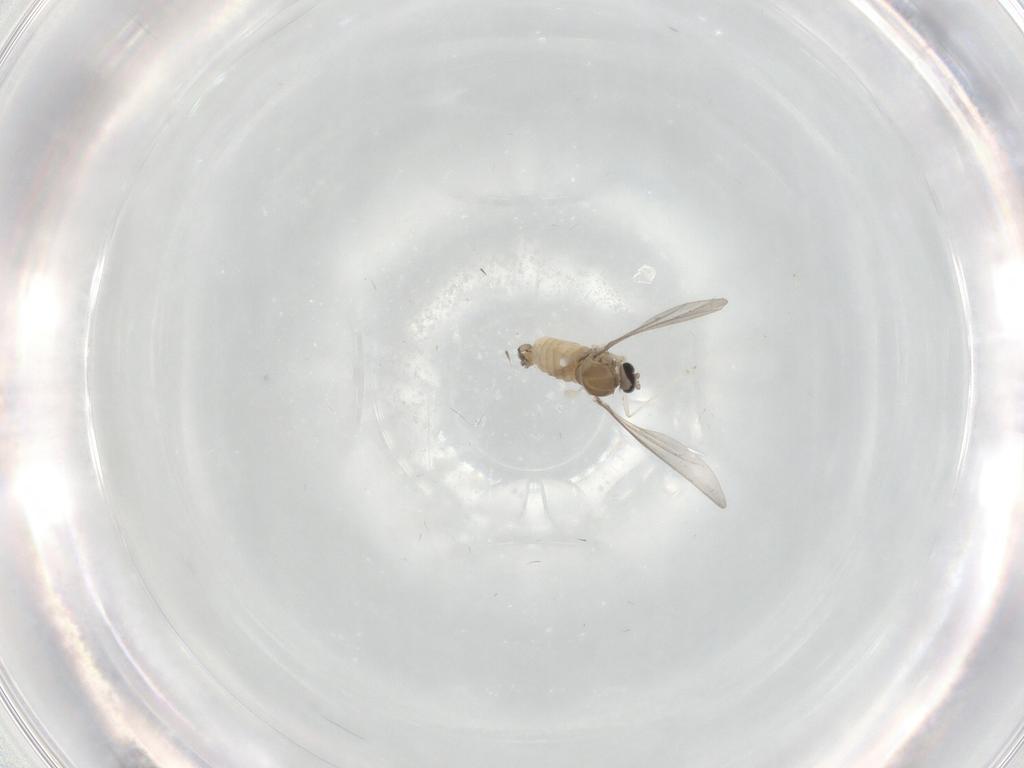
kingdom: Animalia
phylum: Arthropoda
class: Insecta
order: Diptera
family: Cecidomyiidae
